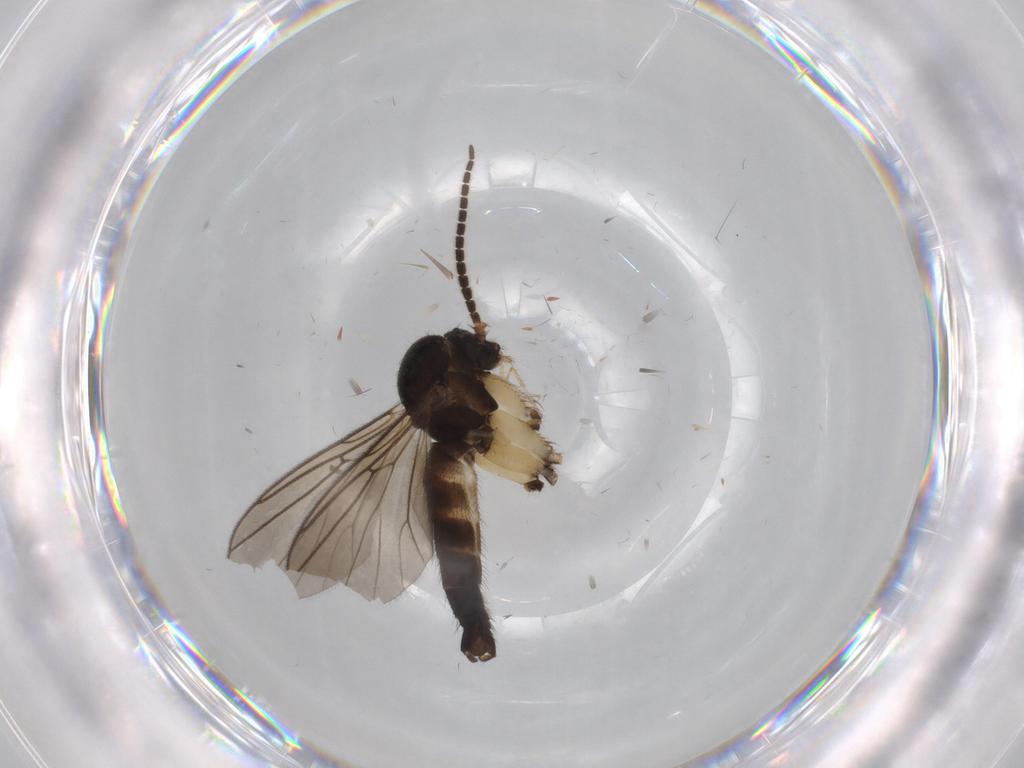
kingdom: Animalia
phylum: Arthropoda
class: Insecta
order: Diptera
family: Mycetophilidae
